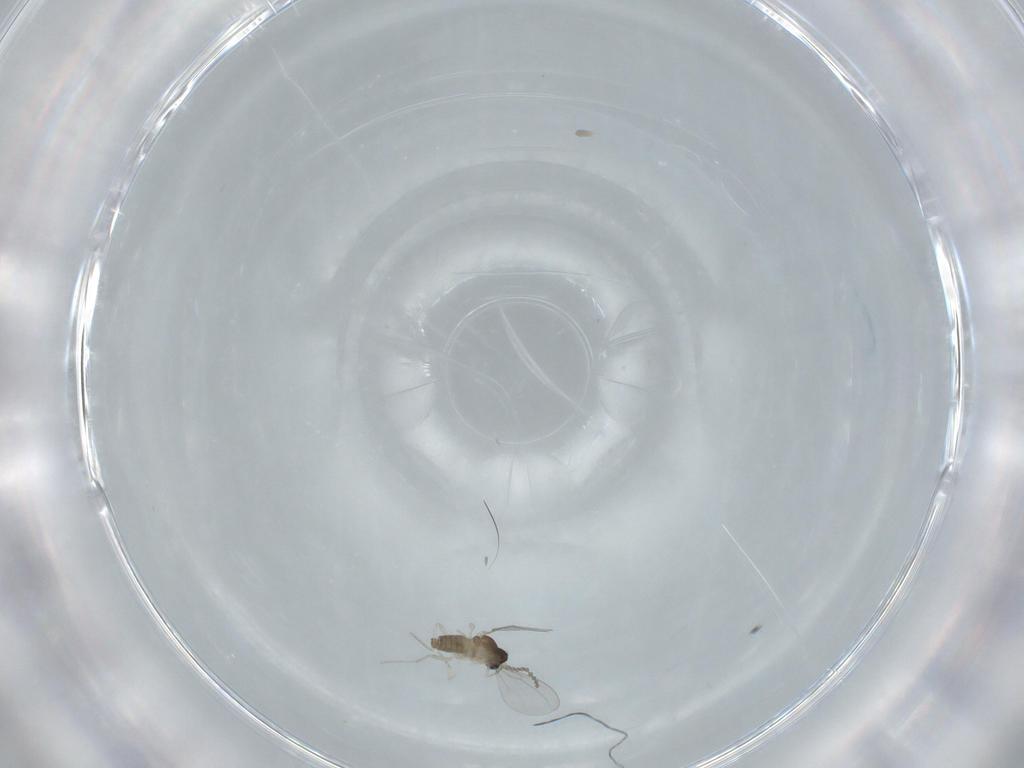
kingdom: Animalia
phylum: Arthropoda
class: Insecta
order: Diptera
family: Cecidomyiidae
